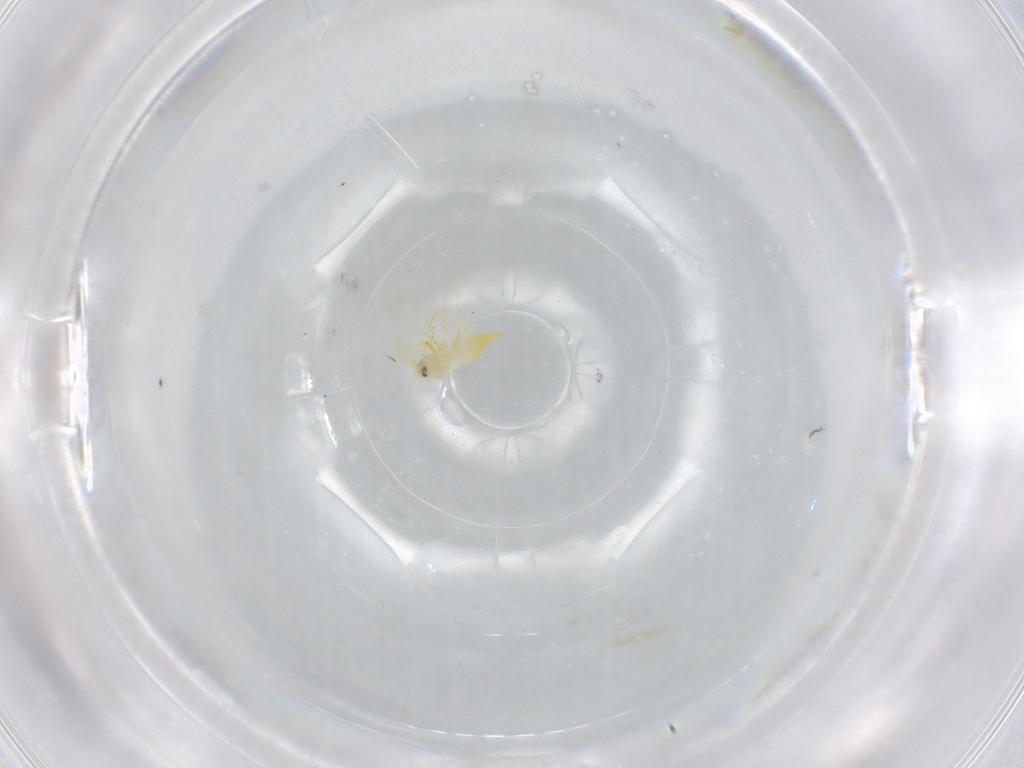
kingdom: Animalia
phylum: Arthropoda
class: Insecta
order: Hemiptera
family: Aleyrodidae
